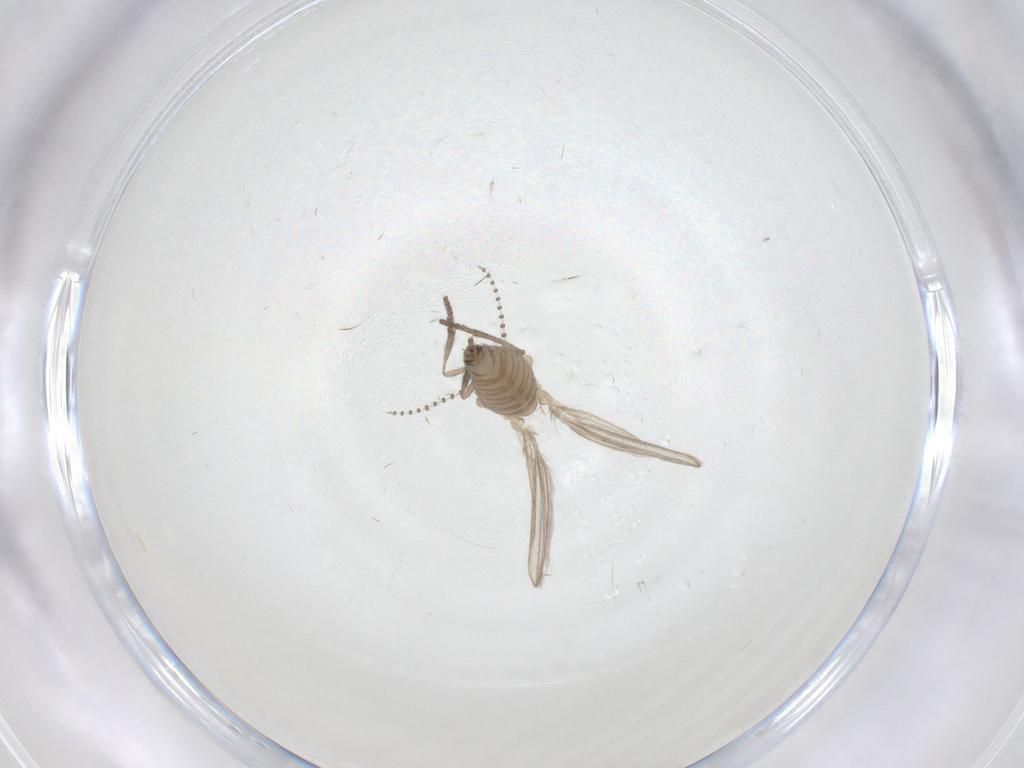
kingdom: Animalia
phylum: Arthropoda
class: Insecta
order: Diptera
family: Psychodidae
